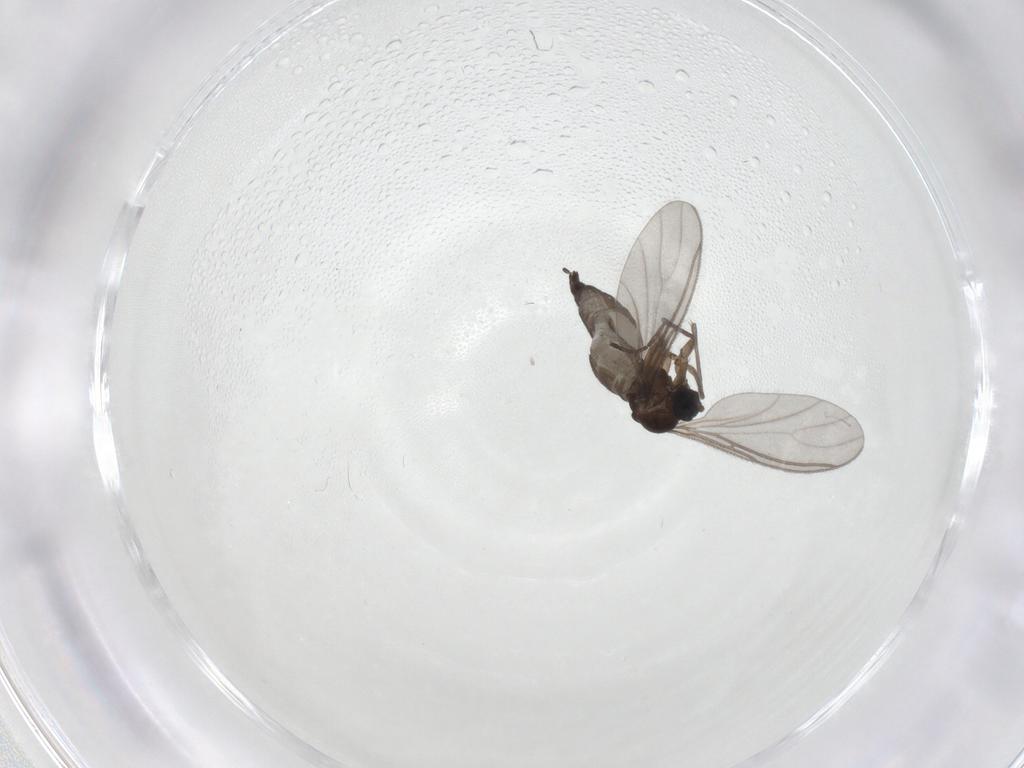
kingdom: Animalia
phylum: Arthropoda
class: Insecta
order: Diptera
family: Sciaridae
